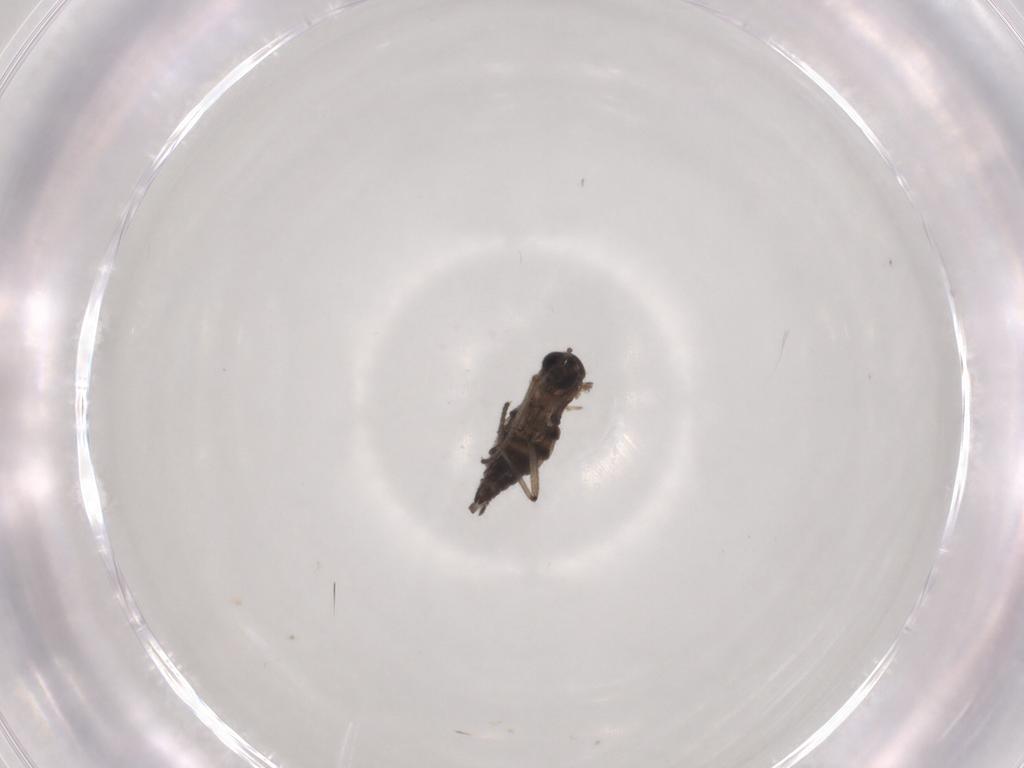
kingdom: Animalia
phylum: Arthropoda
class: Insecta
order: Diptera
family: Sciaridae
